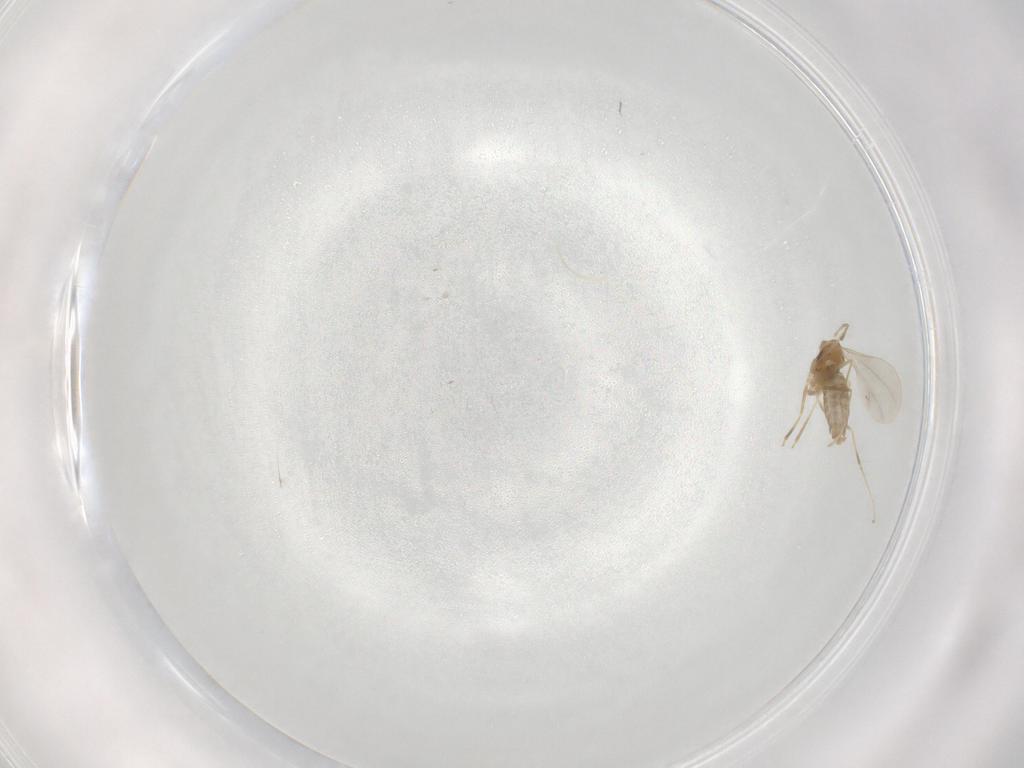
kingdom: Animalia
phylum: Arthropoda
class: Insecta
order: Diptera
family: Cecidomyiidae
